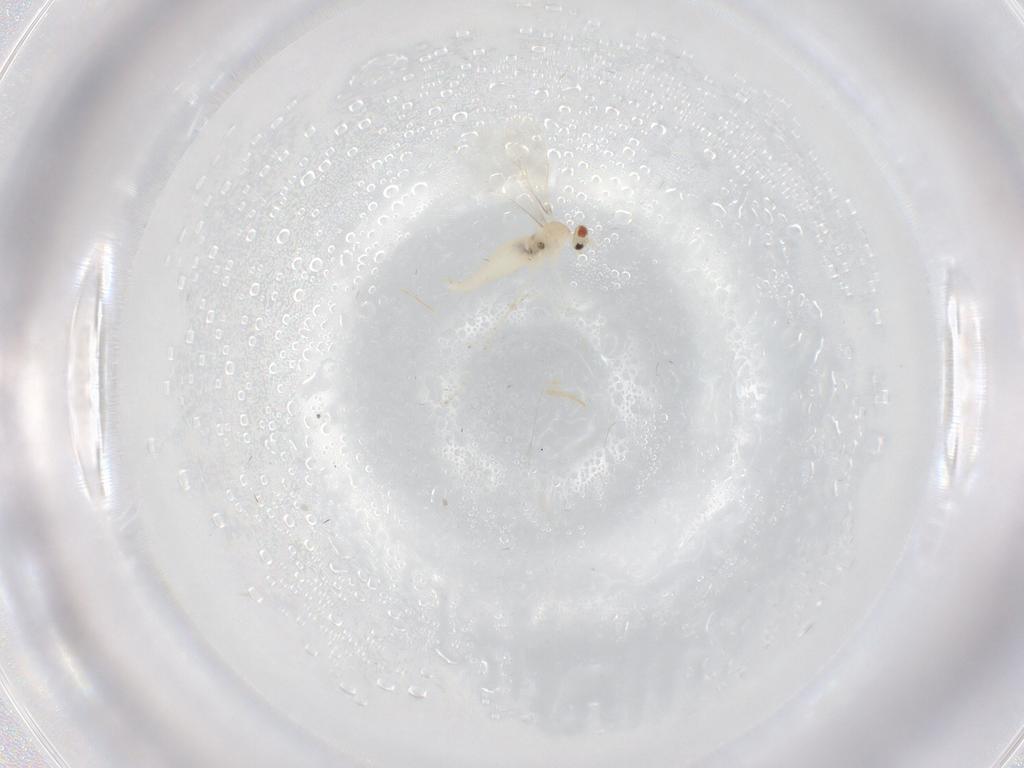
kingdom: Animalia
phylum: Arthropoda
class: Insecta
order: Diptera
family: Cecidomyiidae
